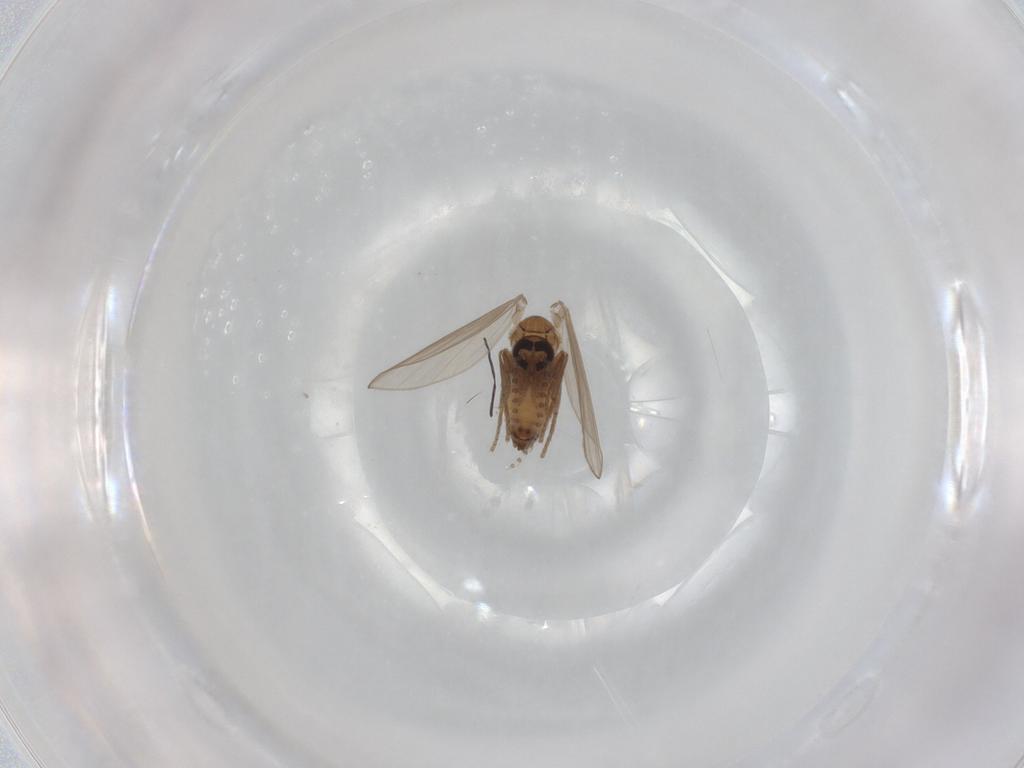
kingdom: Animalia
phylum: Arthropoda
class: Insecta
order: Diptera
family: Psychodidae
